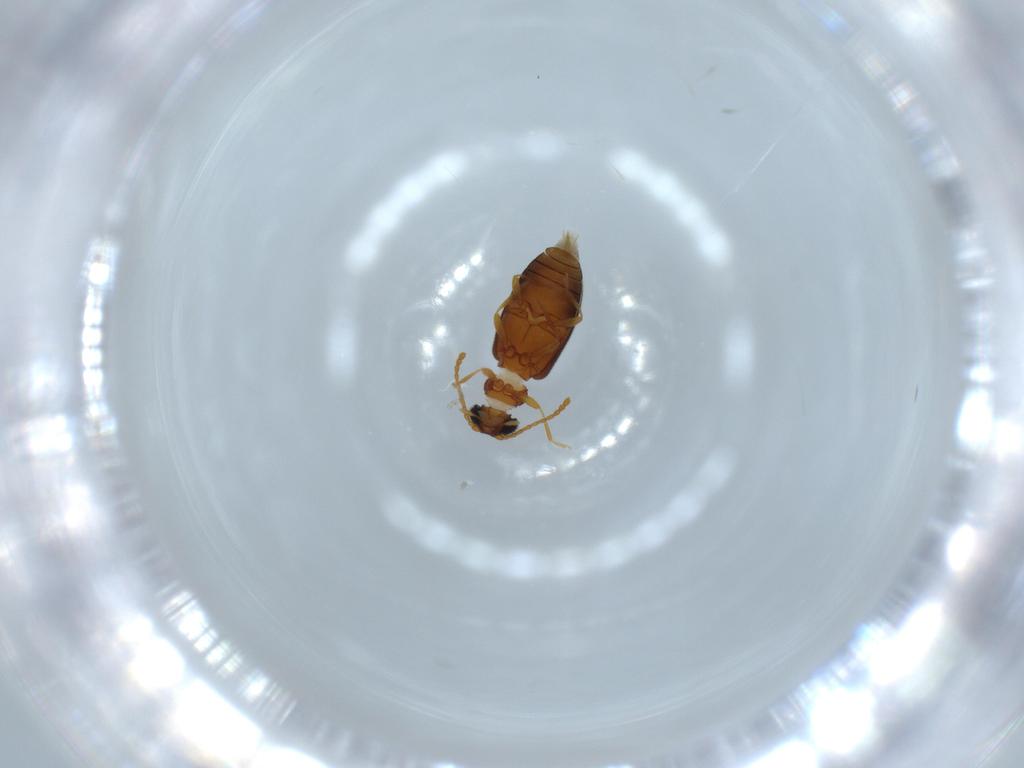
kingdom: Animalia
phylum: Arthropoda
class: Insecta
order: Coleoptera
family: Aderidae
